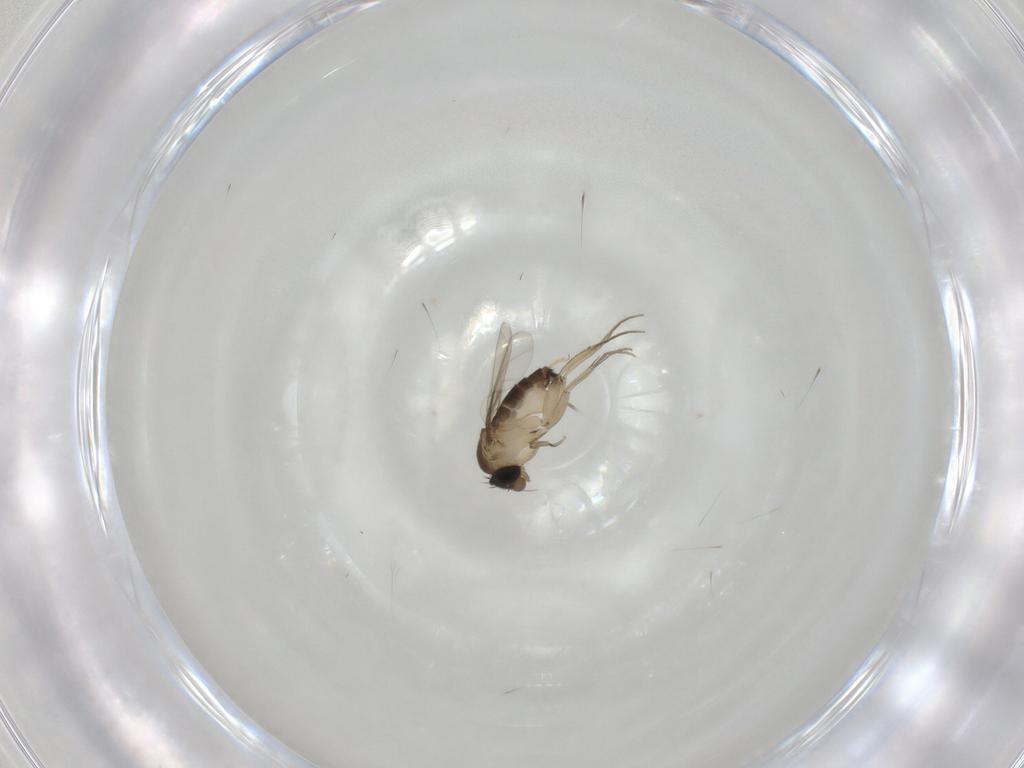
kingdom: Animalia
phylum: Arthropoda
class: Insecta
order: Diptera
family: Phoridae
